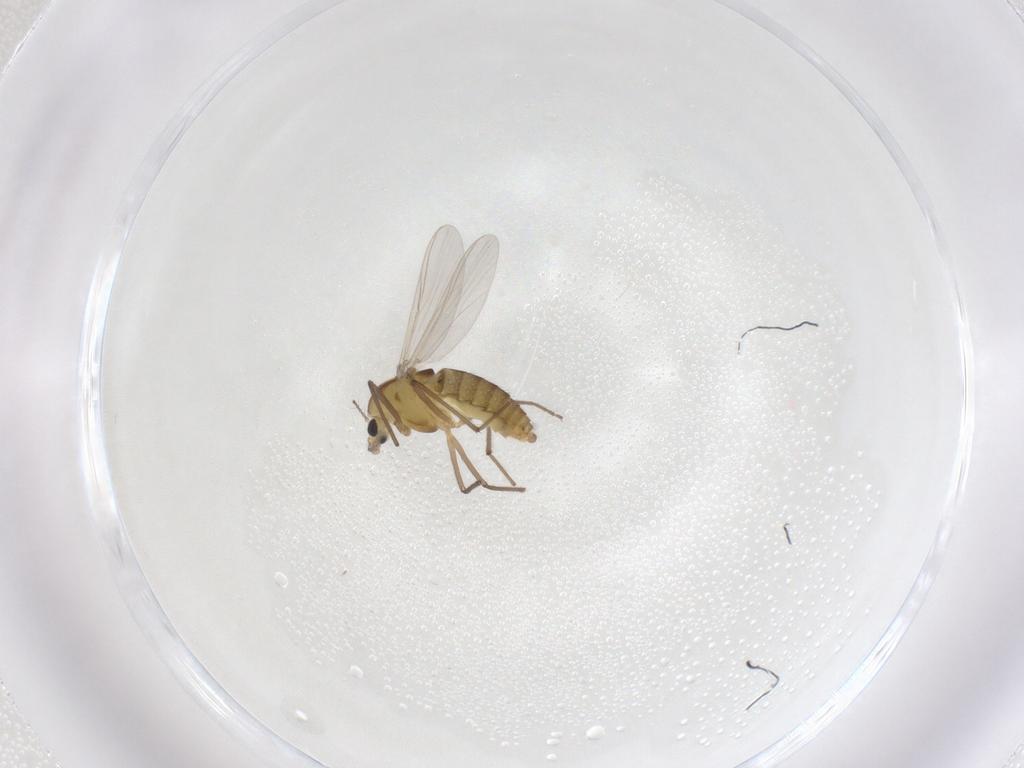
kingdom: Animalia
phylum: Arthropoda
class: Insecta
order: Diptera
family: Chironomidae
